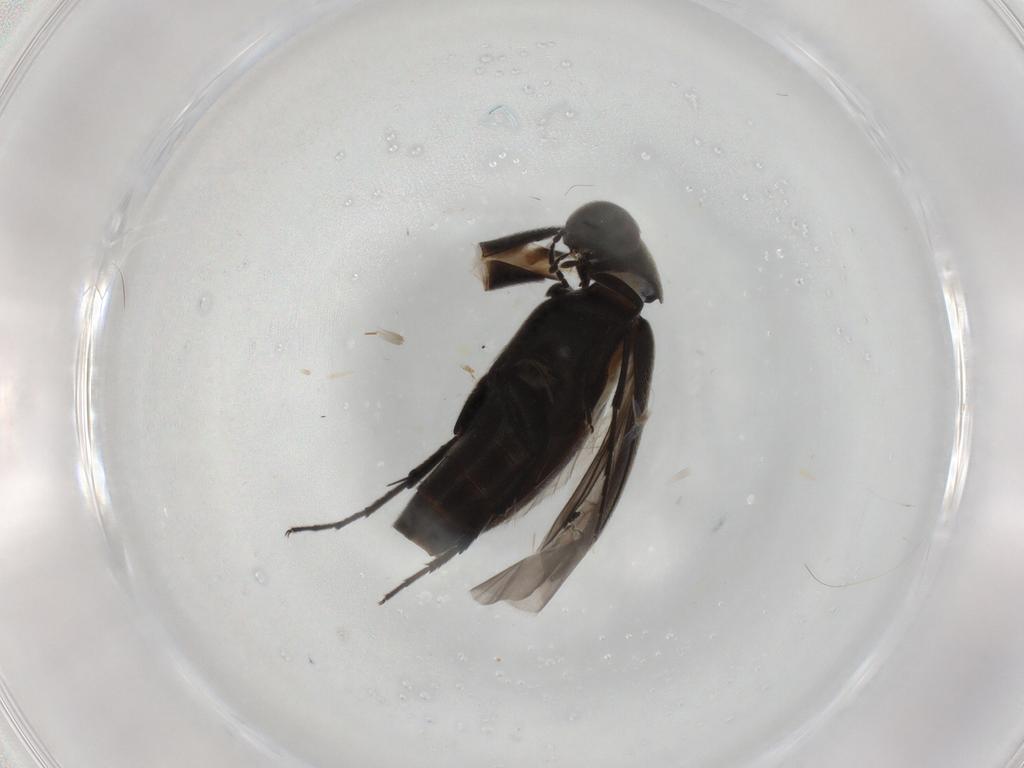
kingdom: Animalia
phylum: Arthropoda
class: Insecta
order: Coleoptera
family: Mordellidae
